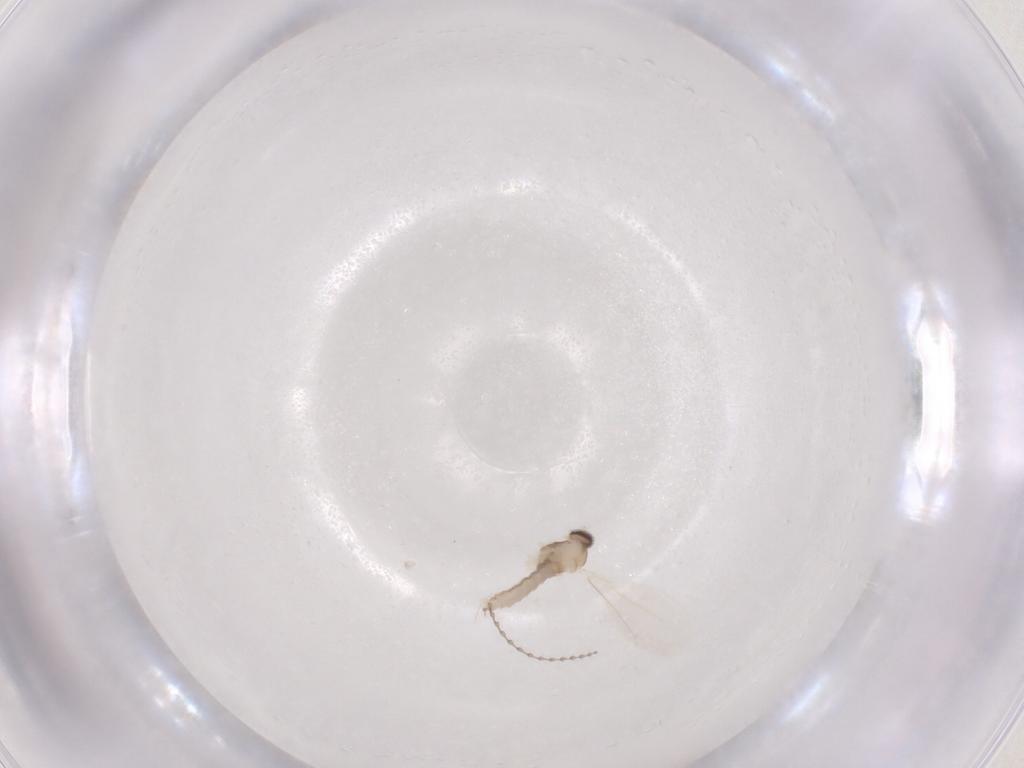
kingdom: Animalia
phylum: Arthropoda
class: Insecta
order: Diptera
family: Cecidomyiidae
